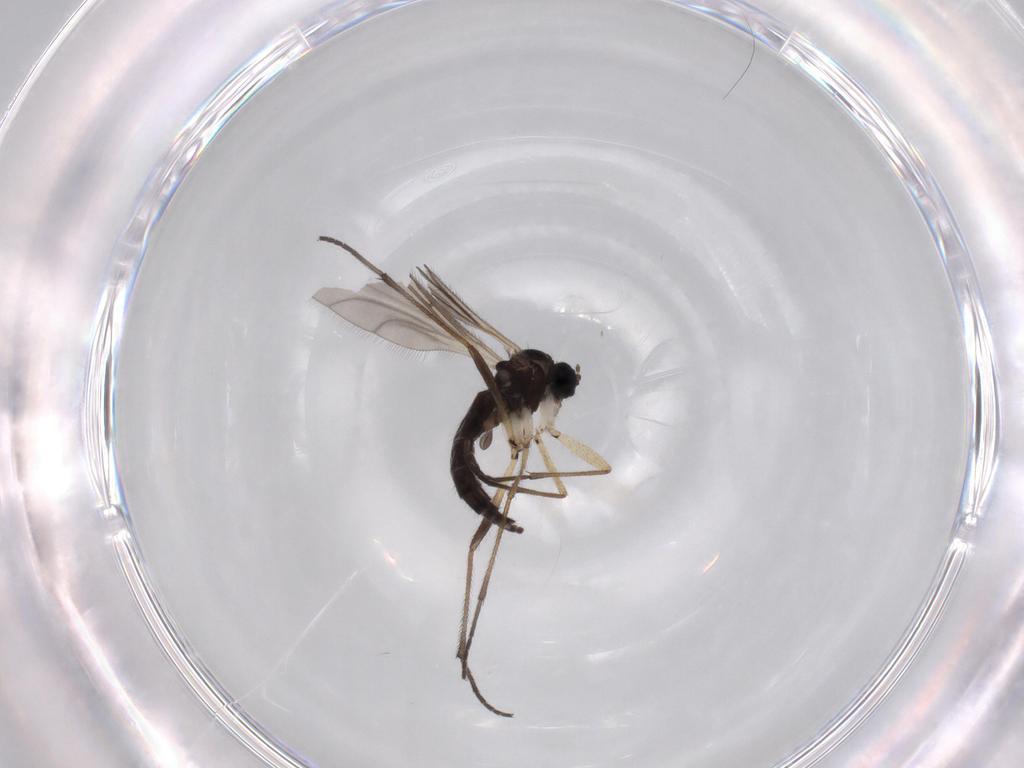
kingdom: Animalia
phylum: Arthropoda
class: Insecta
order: Diptera
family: Sciaridae
